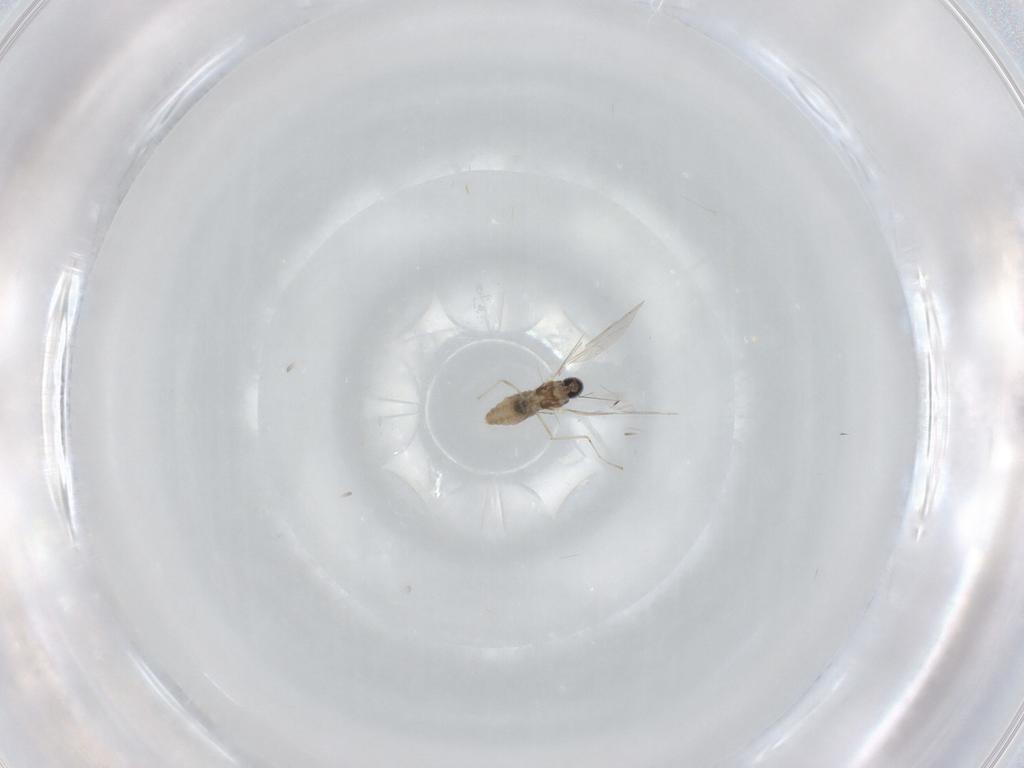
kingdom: Animalia
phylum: Arthropoda
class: Insecta
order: Diptera
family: Cecidomyiidae
